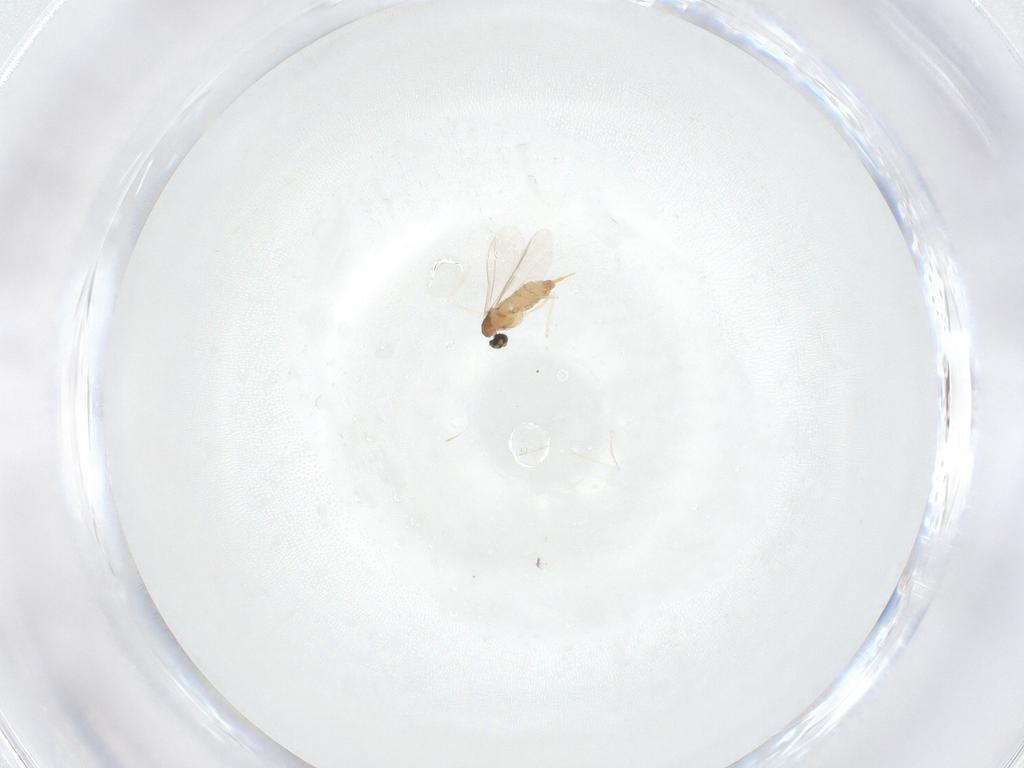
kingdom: Animalia
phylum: Arthropoda
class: Insecta
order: Diptera
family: Cecidomyiidae
